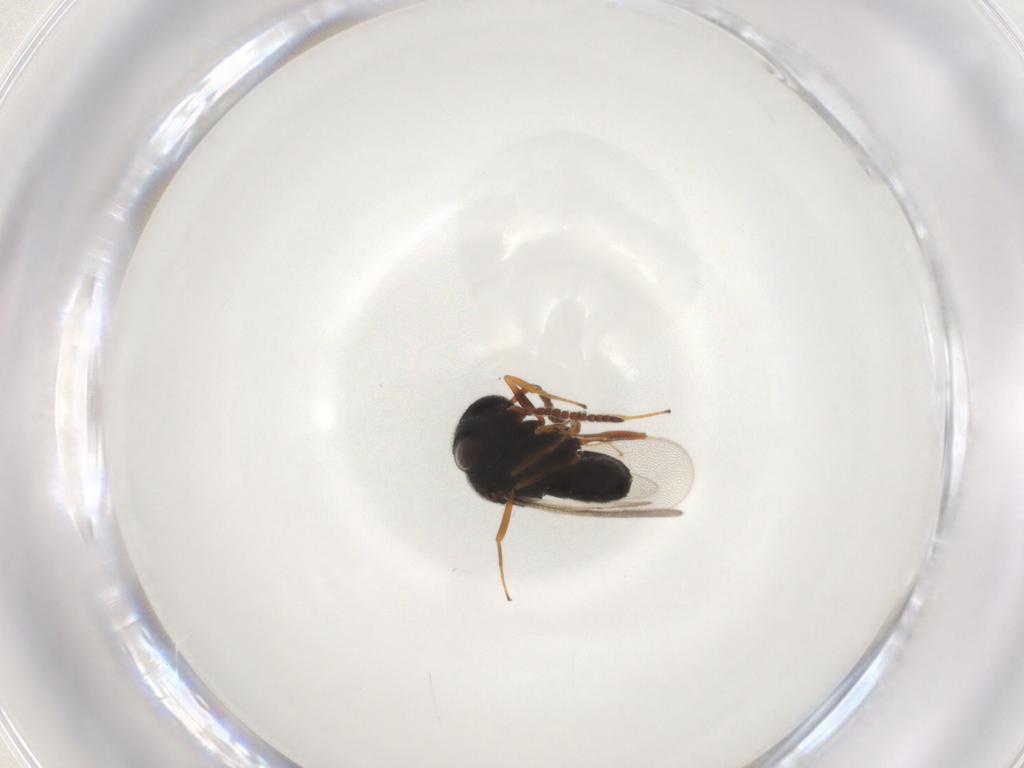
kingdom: Animalia
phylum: Arthropoda
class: Insecta
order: Hymenoptera
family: Scelionidae
